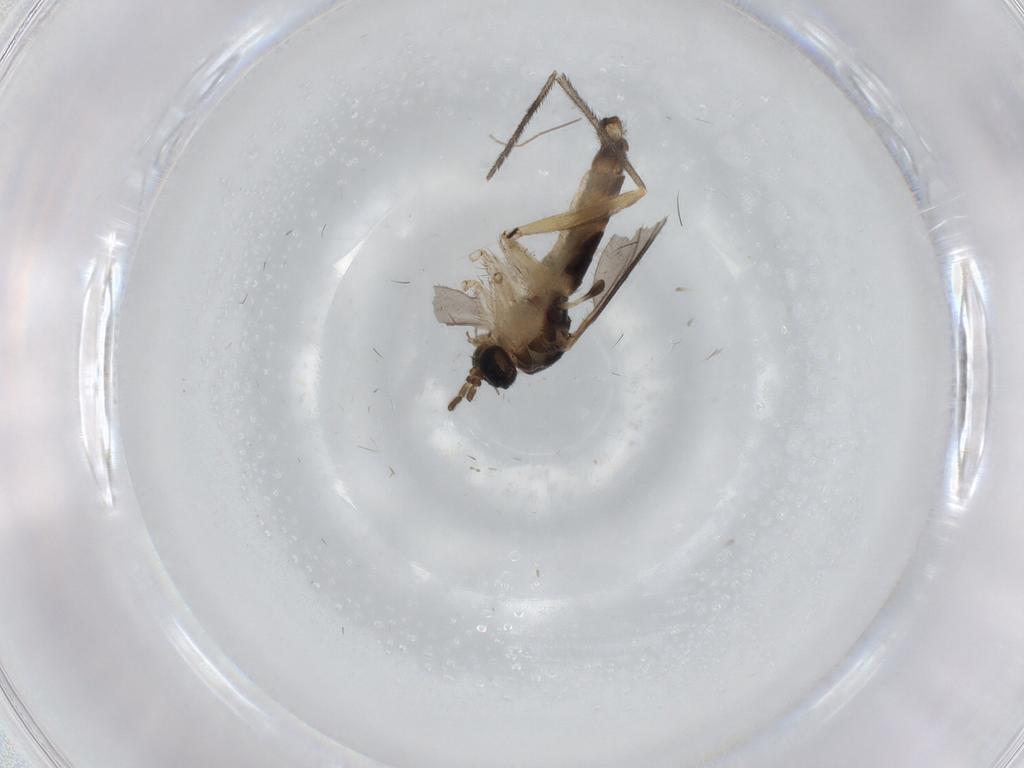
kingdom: Animalia
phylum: Arthropoda
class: Insecta
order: Diptera
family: Sciaridae
